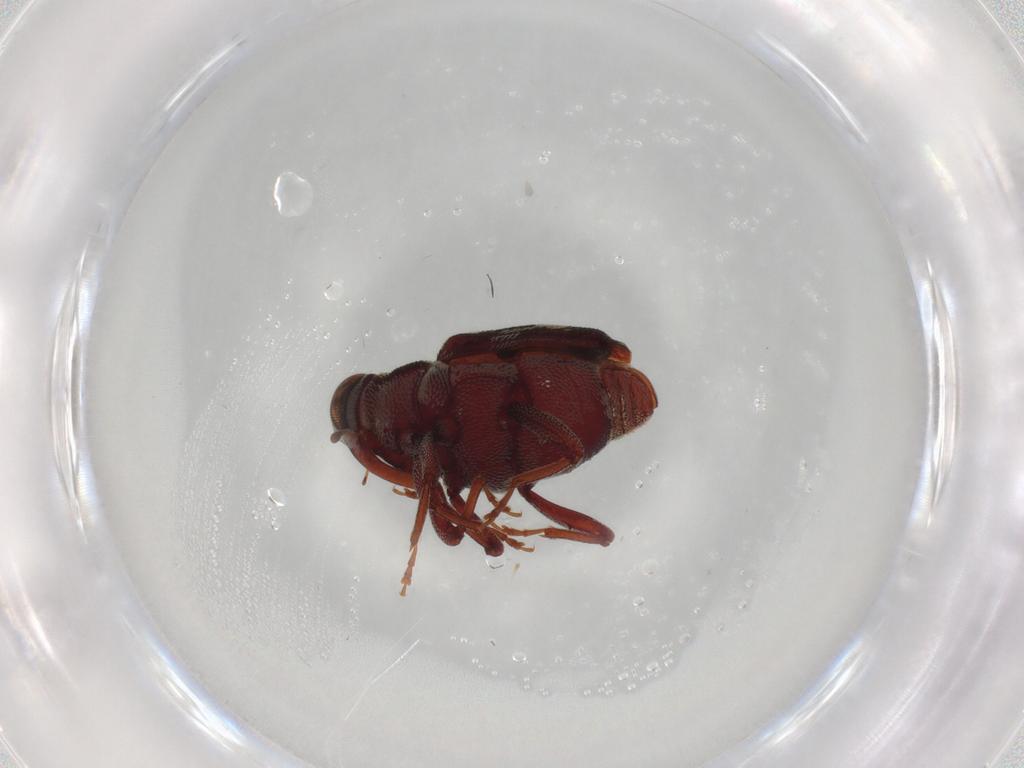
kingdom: Animalia
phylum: Arthropoda
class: Insecta
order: Coleoptera
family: Curculionidae
